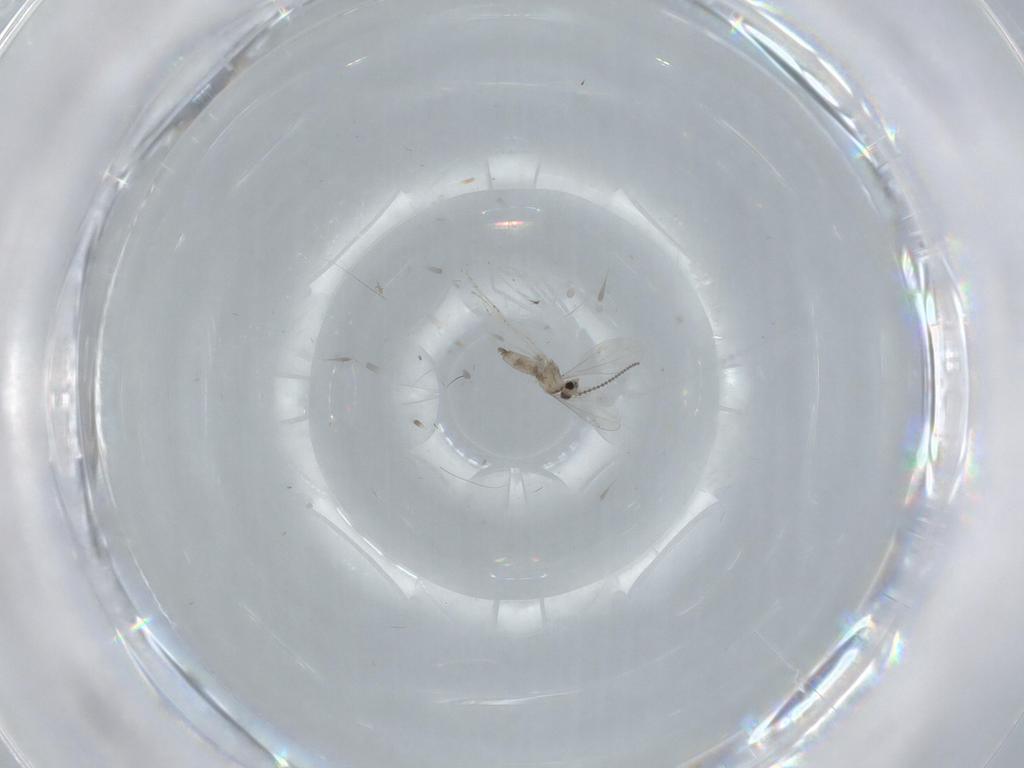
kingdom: Animalia
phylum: Arthropoda
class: Insecta
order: Diptera
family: Cecidomyiidae
